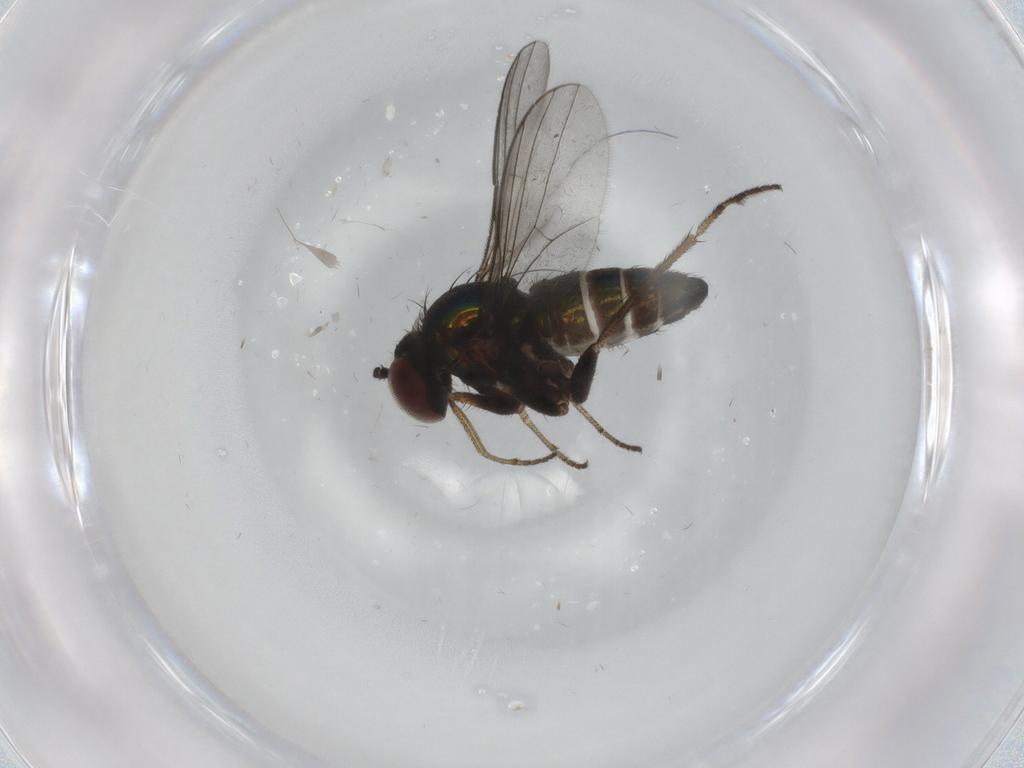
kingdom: Animalia
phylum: Arthropoda
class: Insecta
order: Diptera
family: Dolichopodidae
